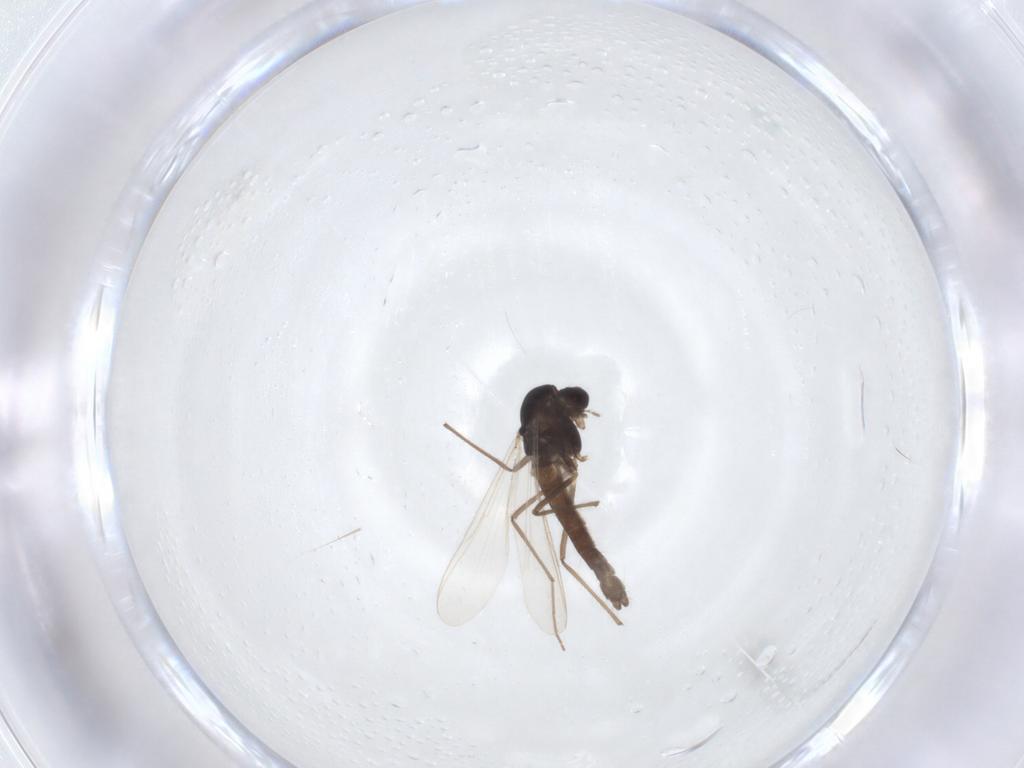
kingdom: Animalia
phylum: Arthropoda
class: Insecta
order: Diptera
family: Chironomidae
